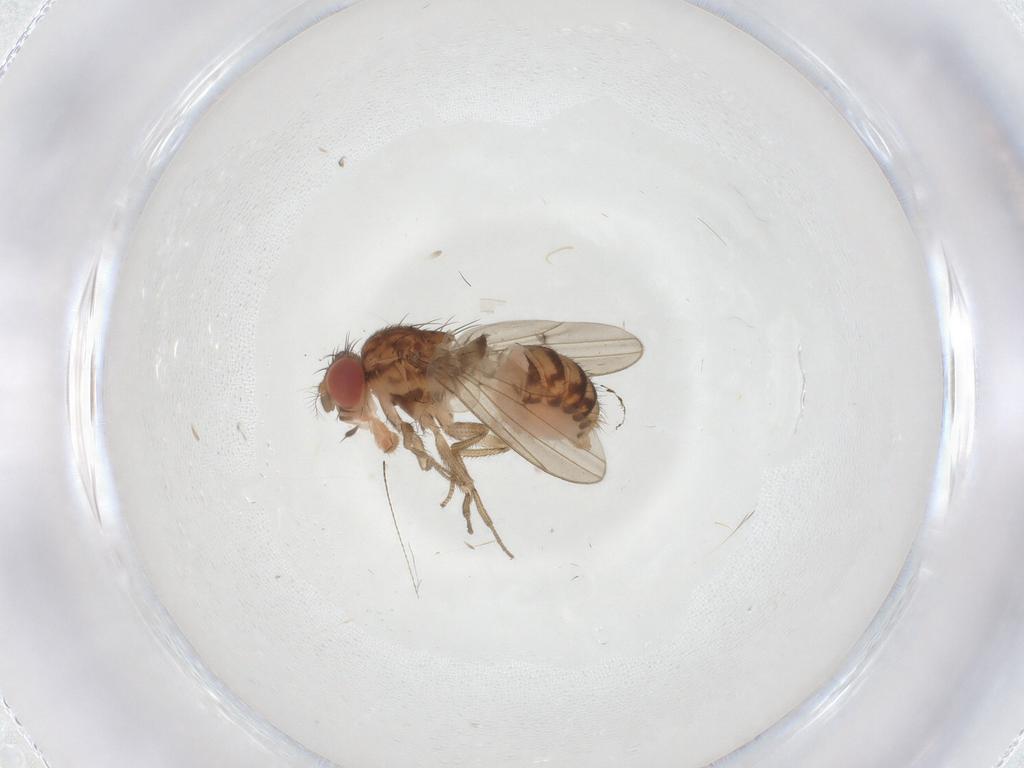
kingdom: Animalia
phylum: Arthropoda
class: Insecta
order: Diptera
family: Drosophilidae
